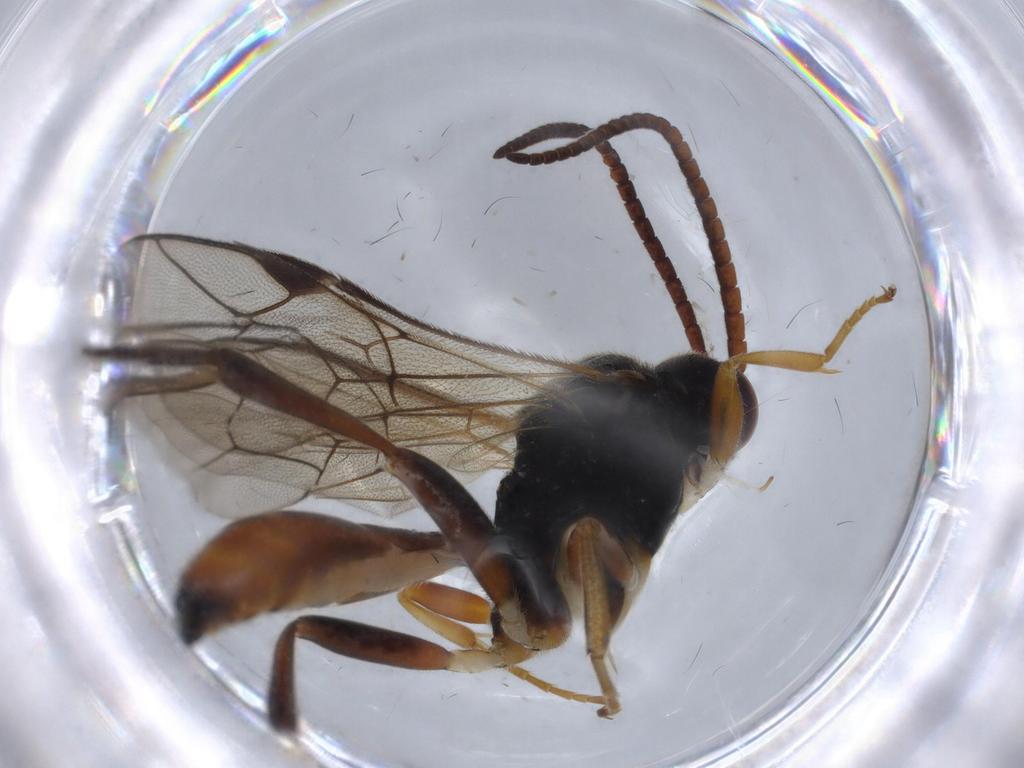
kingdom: Animalia
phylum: Arthropoda
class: Insecta
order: Hymenoptera
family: Ichneumonidae
